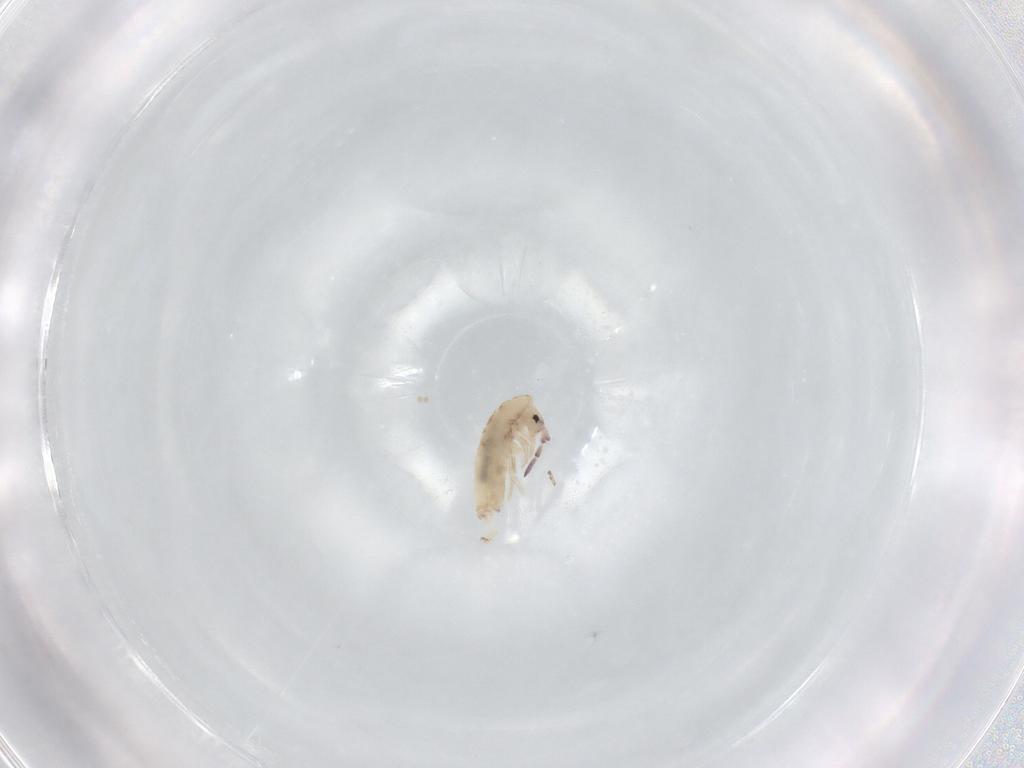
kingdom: Animalia
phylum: Arthropoda
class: Collembola
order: Entomobryomorpha
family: Entomobryidae
